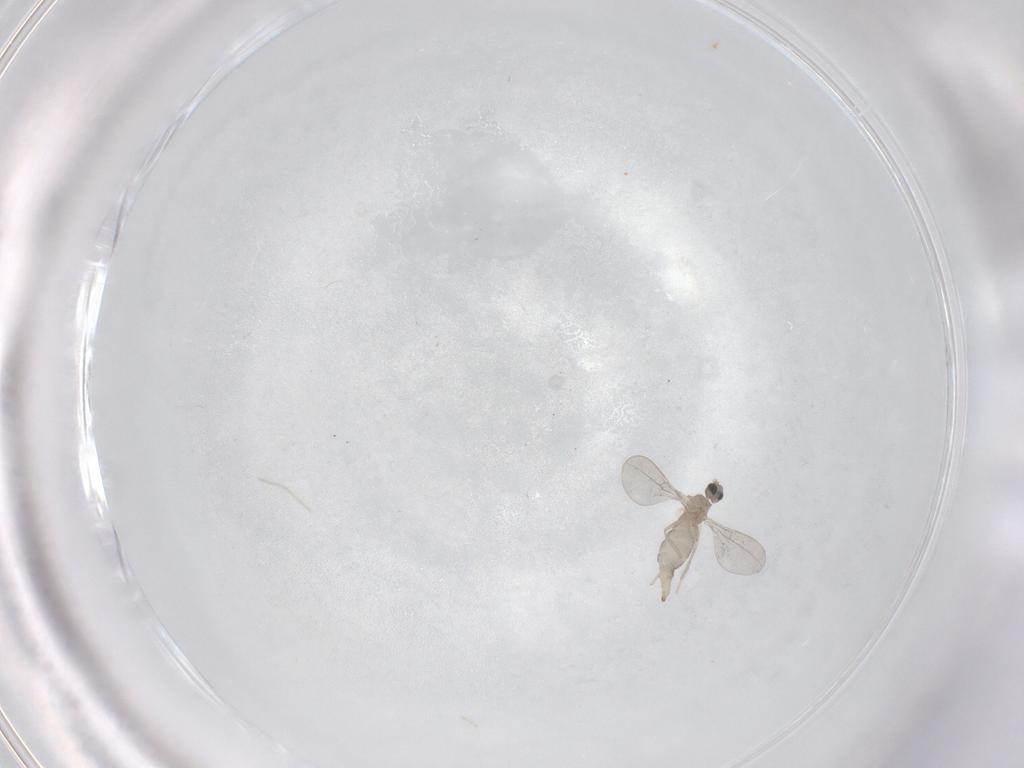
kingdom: Animalia
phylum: Arthropoda
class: Insecta
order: Diptera
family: Cecidomyiidae
